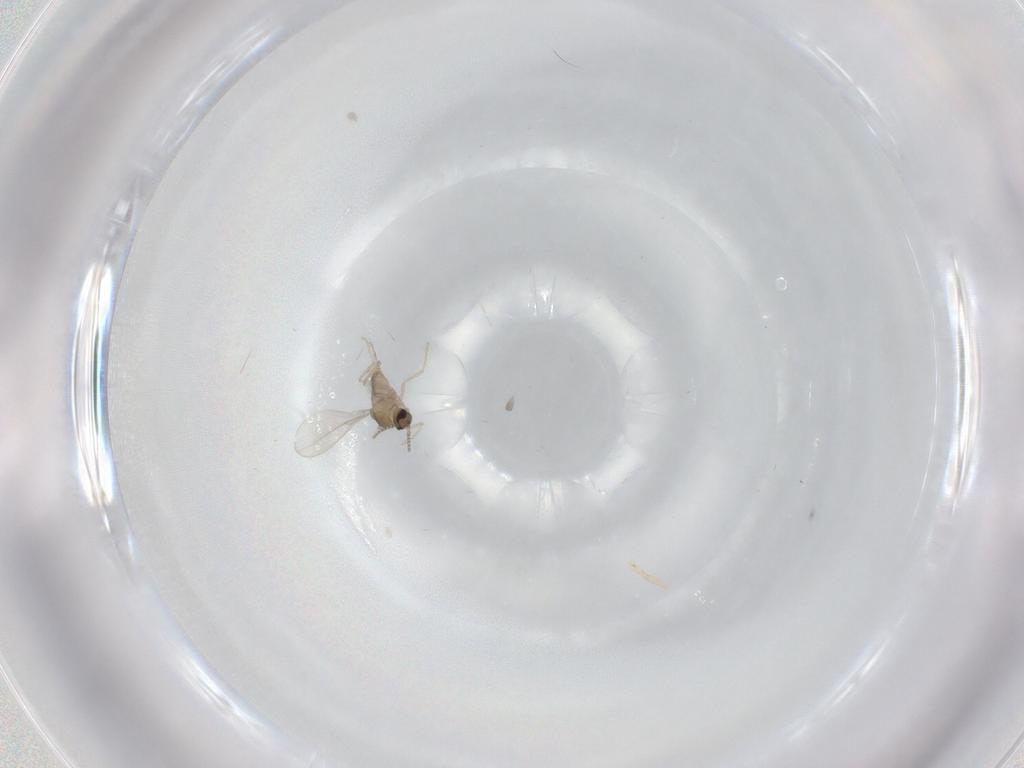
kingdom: Animalia
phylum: Arthropoda
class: Insecta
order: Diptera
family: Cecidomyiidae
